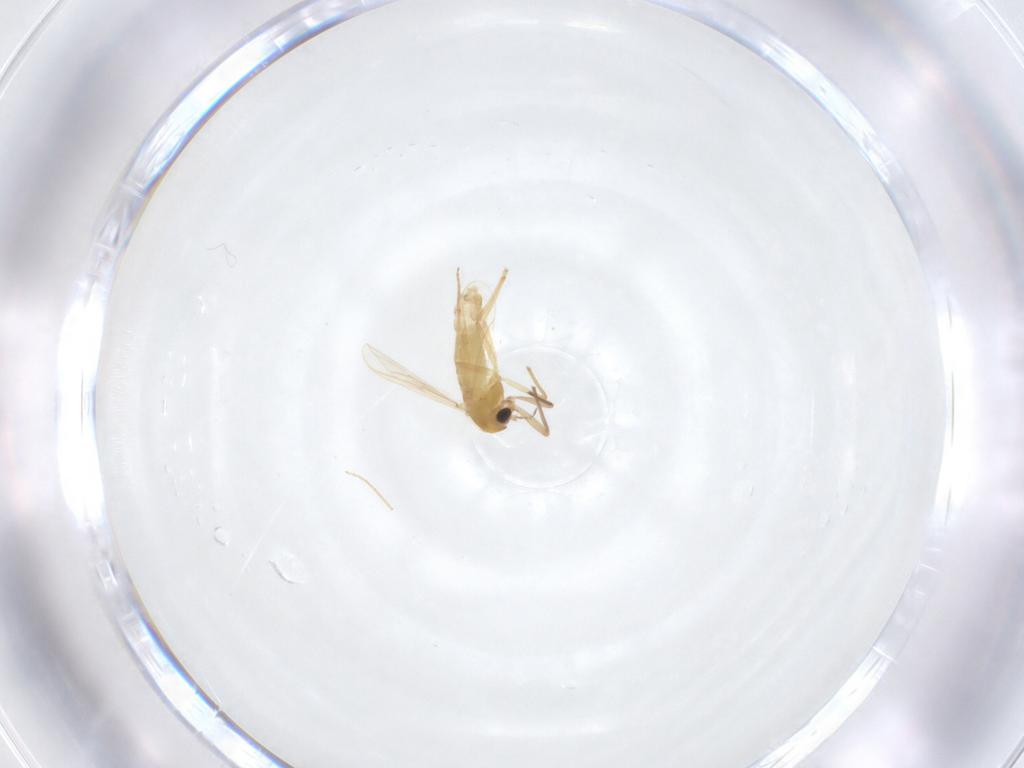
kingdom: Animalia
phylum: Arthropoda
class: Insecta
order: Diptera
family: Chironomidae
